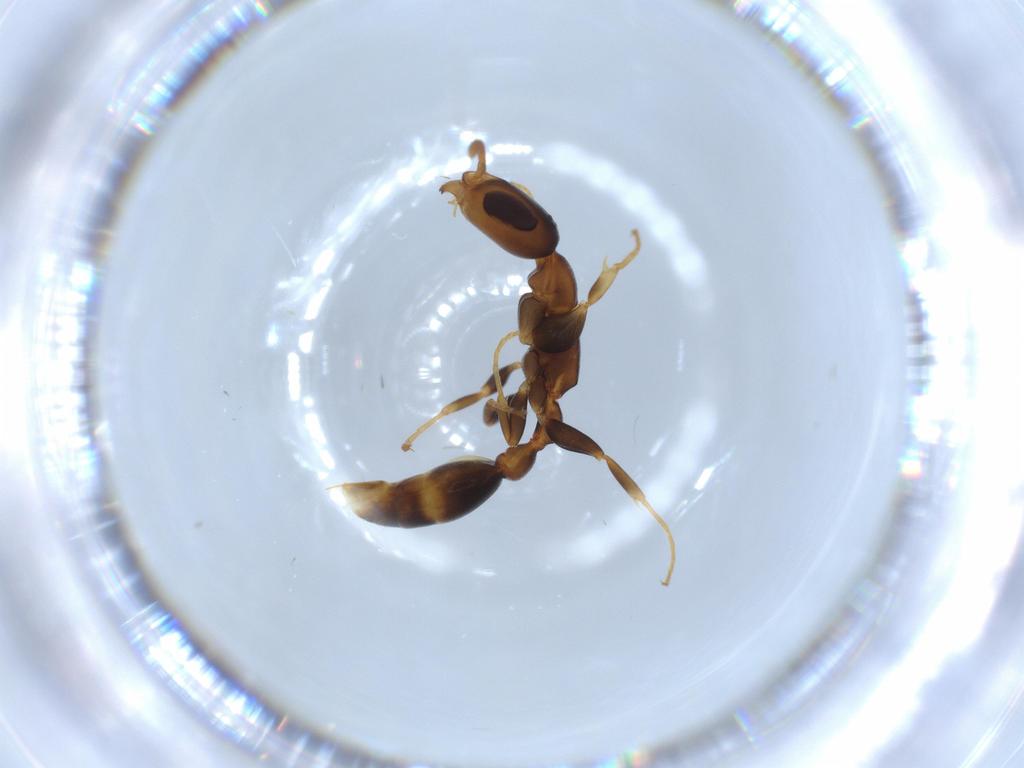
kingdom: Animalia
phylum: Arthropoda
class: Insecta
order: Hymenoptera
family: Formicidae
